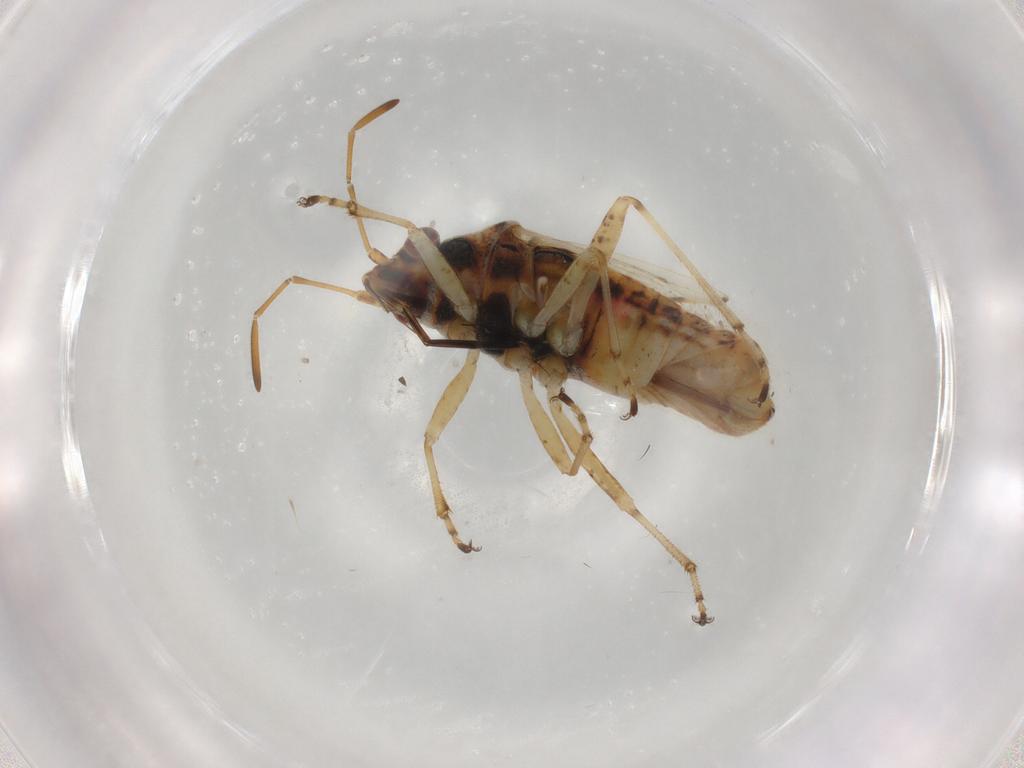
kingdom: Animalia
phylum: Arthropoda
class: Insecta
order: Hemiptera
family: Lygaeidae
